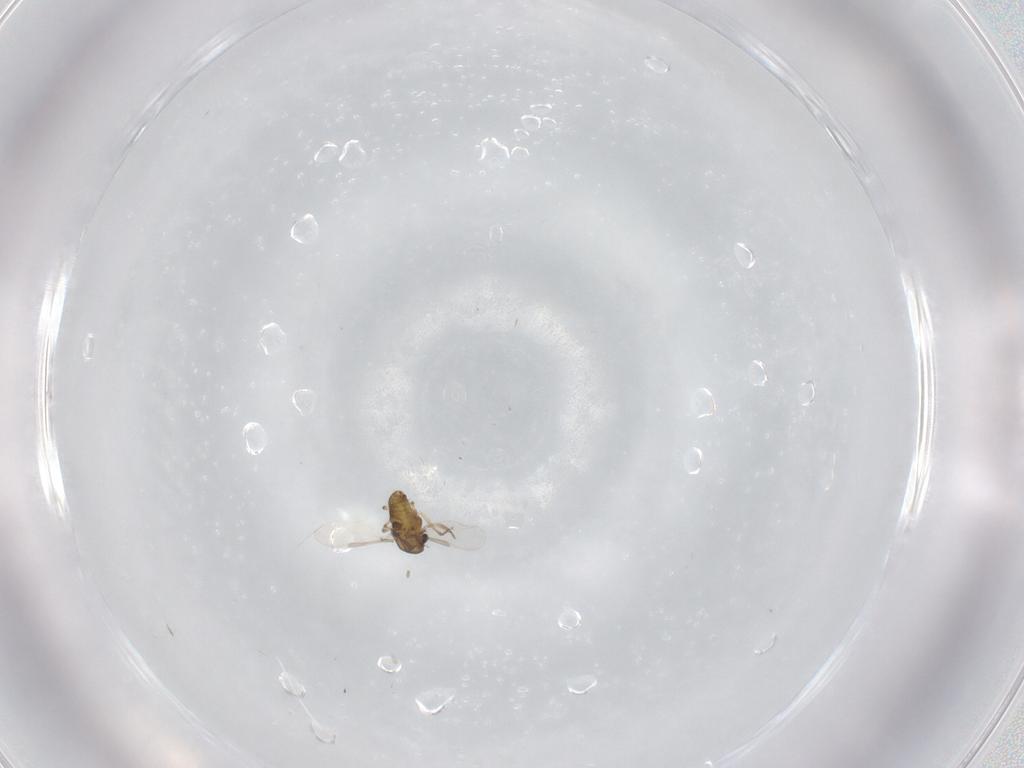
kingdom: Animalia
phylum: Arthropoda
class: Insecta
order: Diptera
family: Chironomidae
